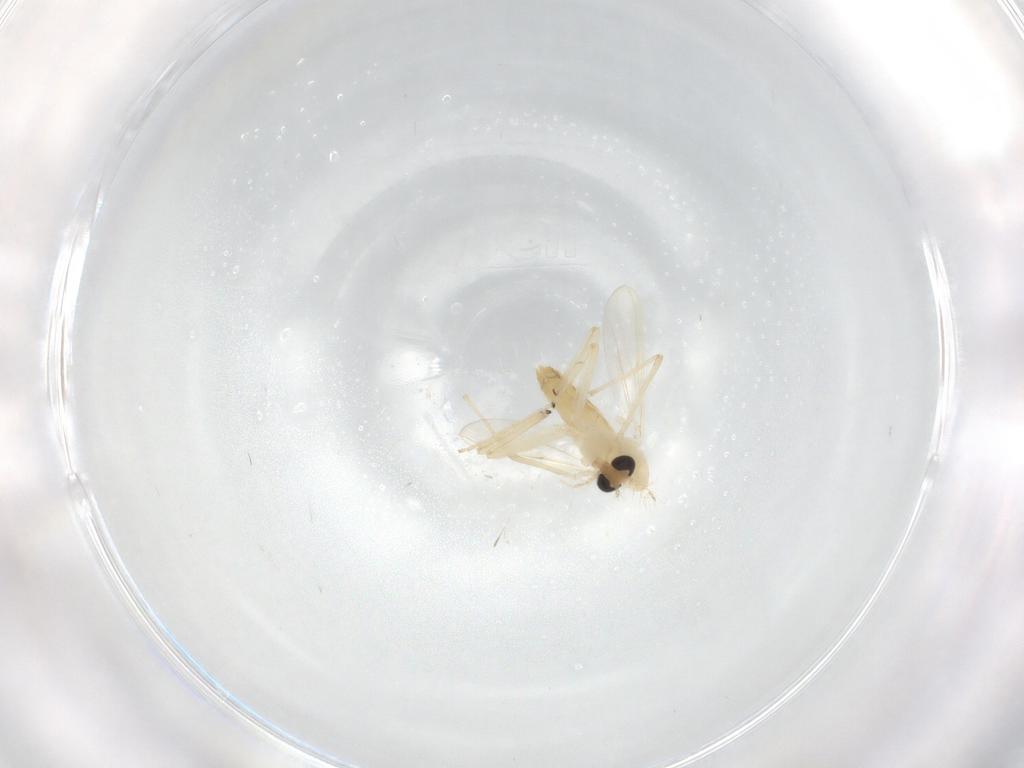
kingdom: Animalia
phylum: Arthropoda
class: Insecta
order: Diptera
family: Chironomidae
